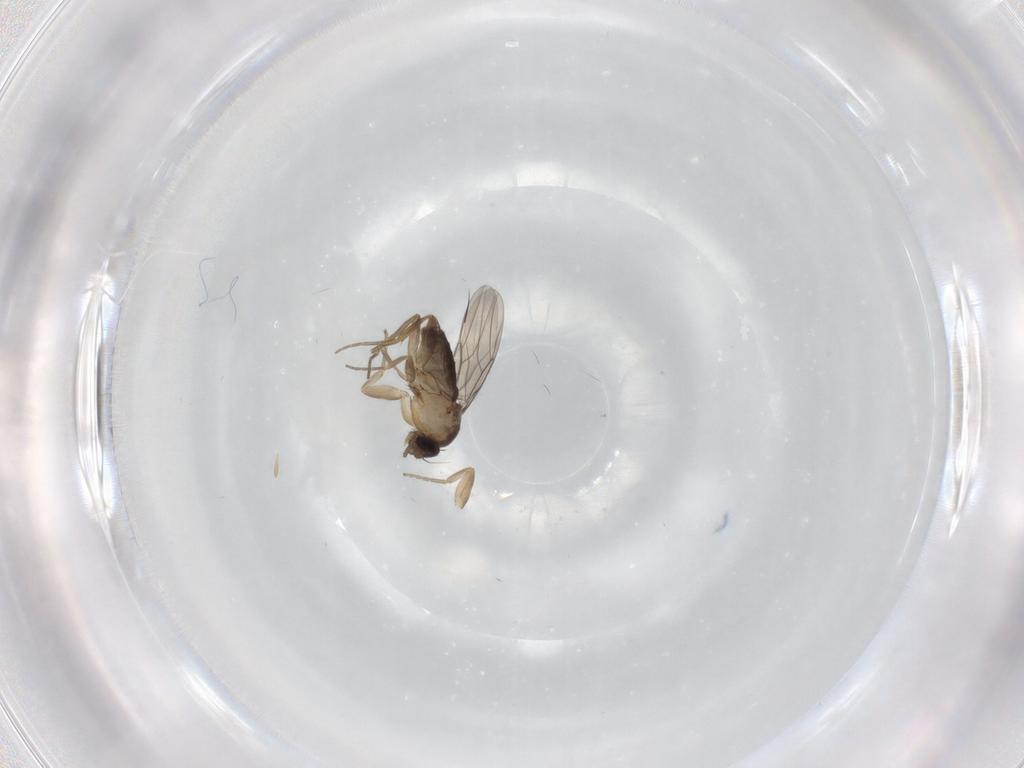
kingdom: Animalia
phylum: Arthropoda
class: Insecta
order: Diptera
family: Phoridae
